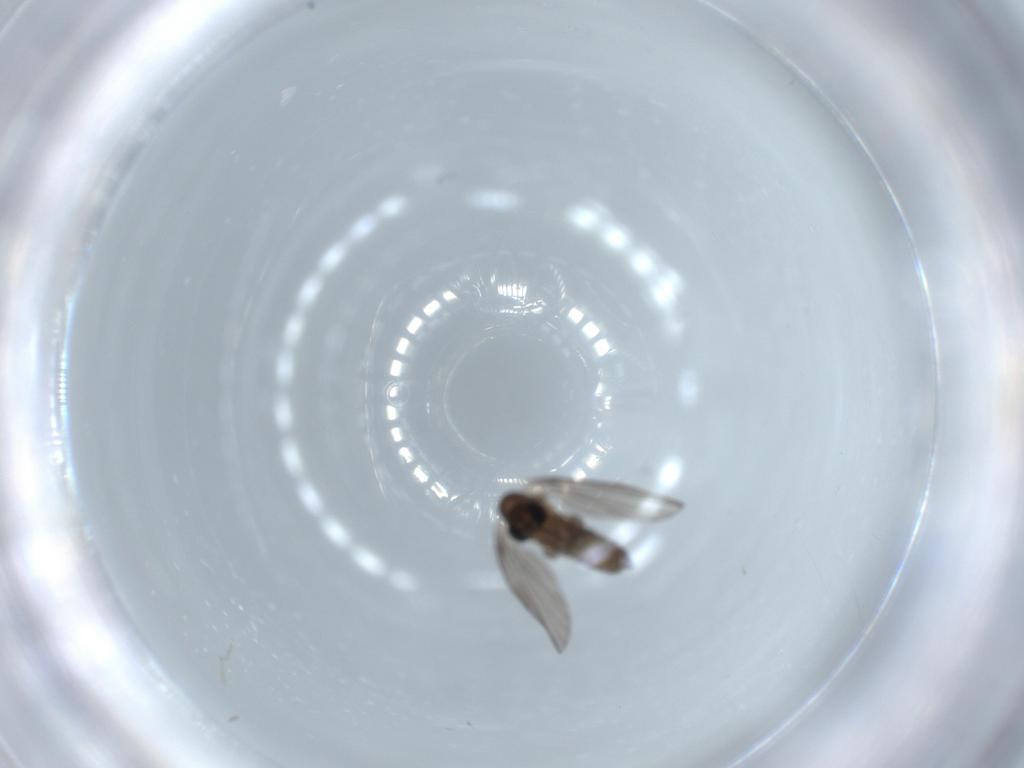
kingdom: Animalia
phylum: Arthropoda
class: Insecta
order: Diptera
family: Psychodidae
